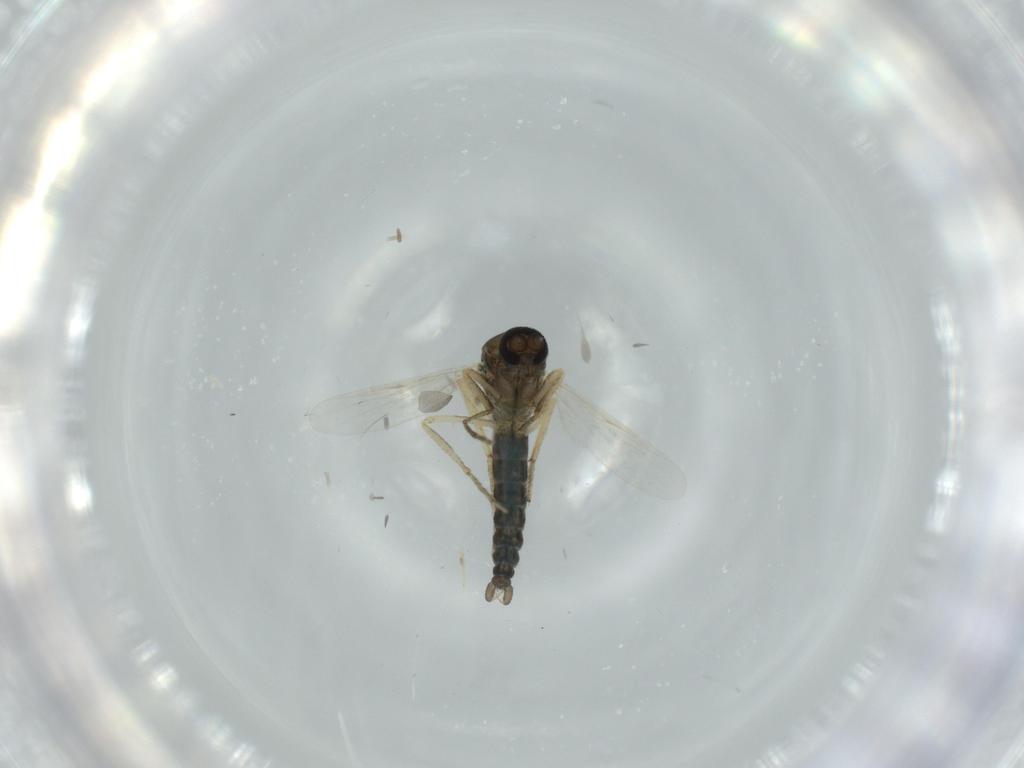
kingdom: Animalia
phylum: Arthropoda
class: Insecta
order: Diptera
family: Ceratopogonidae
